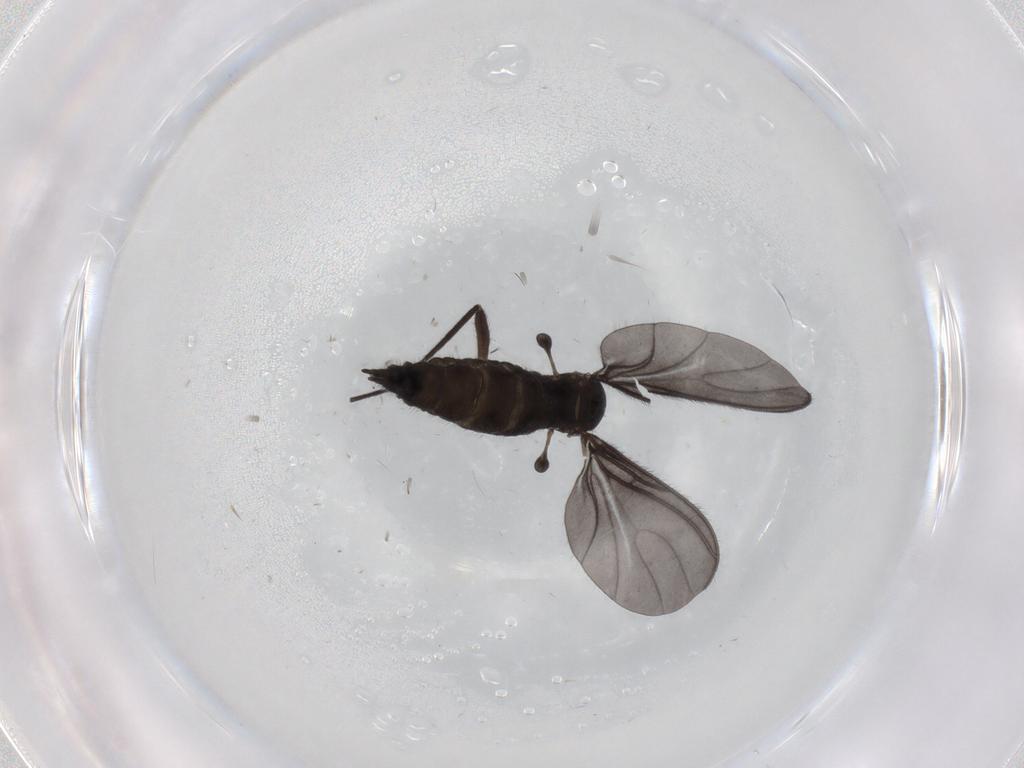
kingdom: Animalia
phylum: Arthropoda
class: Insecta
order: Diptera
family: Sciaridae
